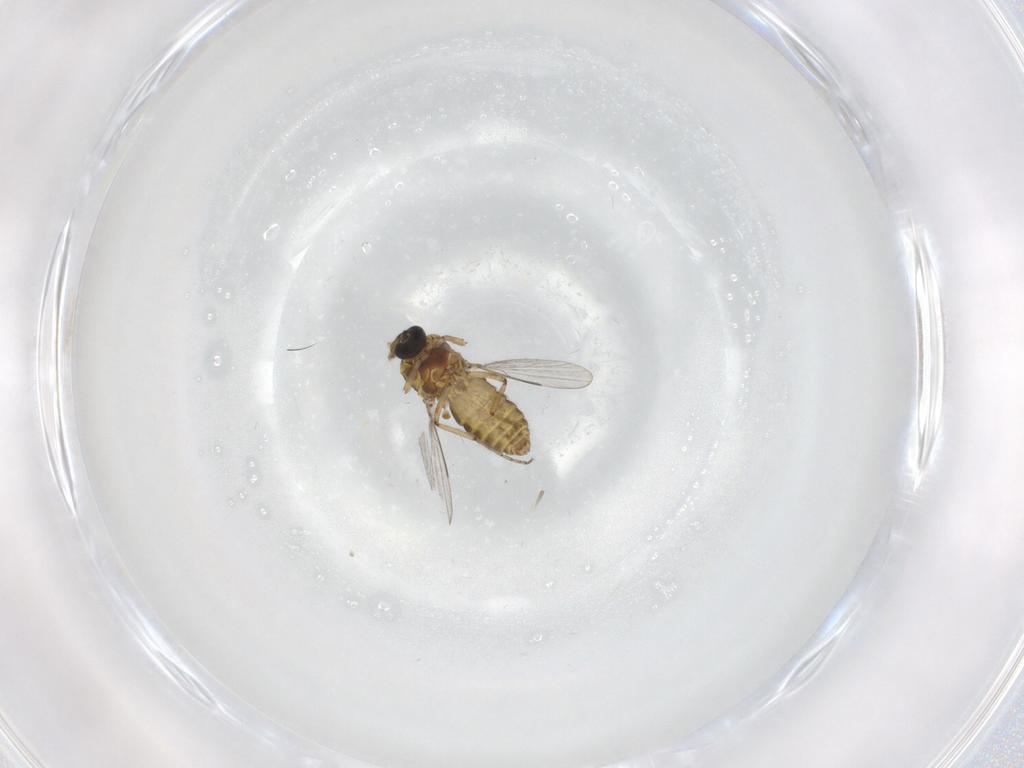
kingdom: Animalia
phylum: Arthropoda
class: Insecta
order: Diptera
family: Ceratopogonidae
